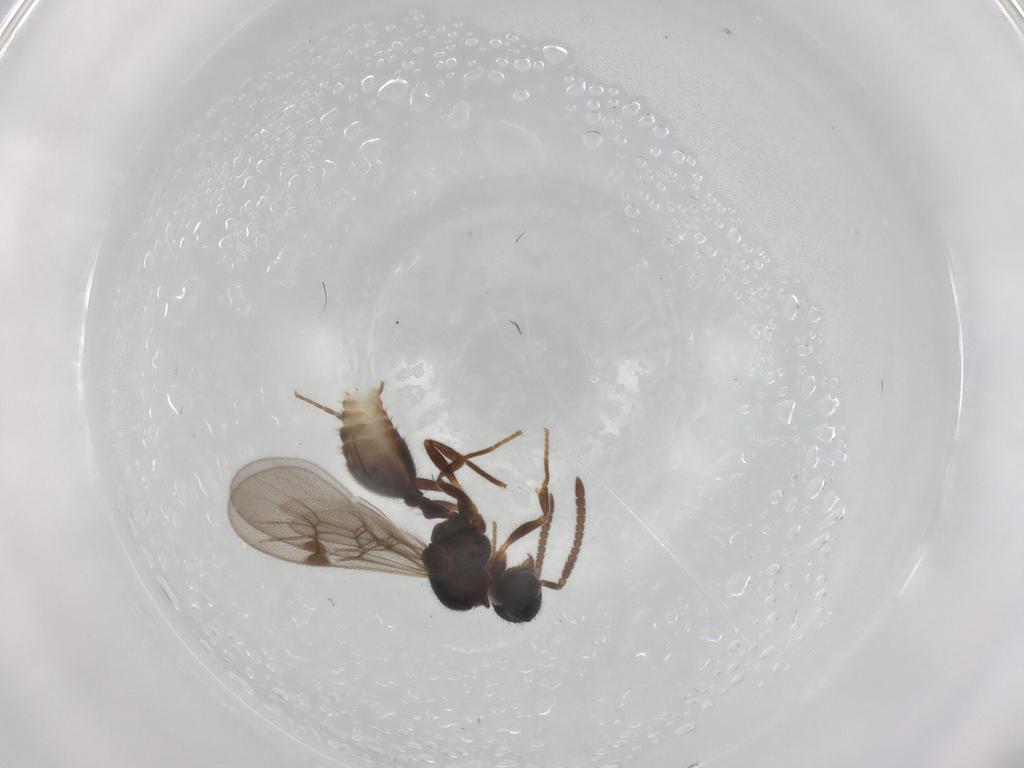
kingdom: Animalia
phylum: Arthropoda
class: Insecta
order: Hymenoptera
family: Formicidae
